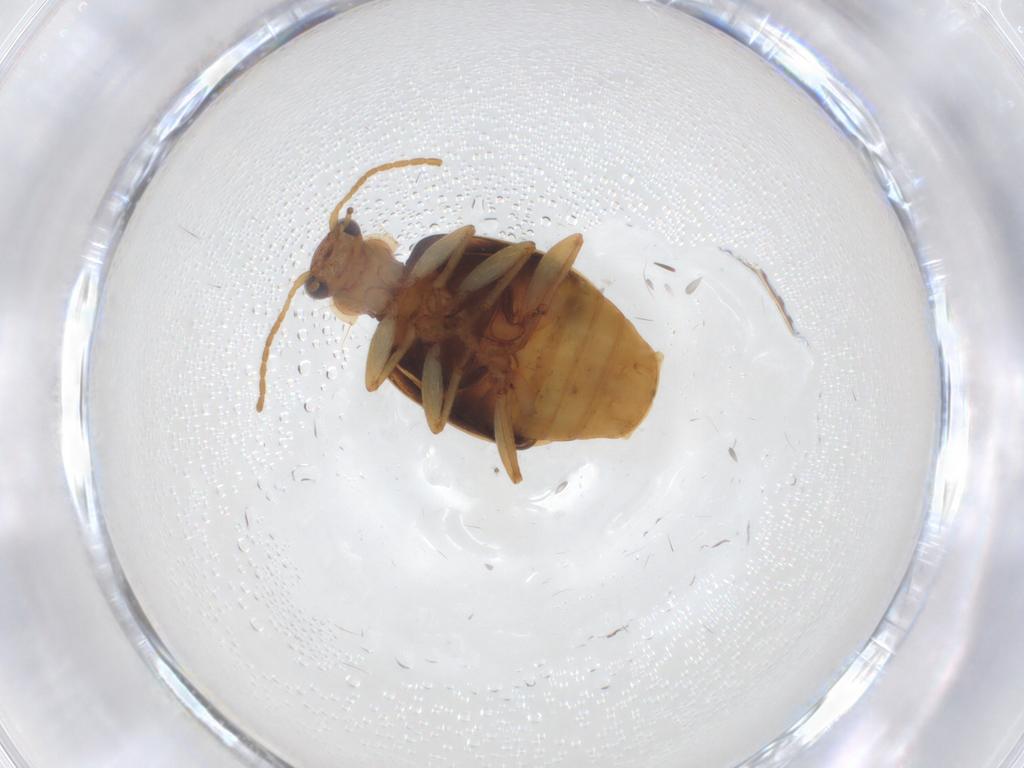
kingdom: Animalia
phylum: Arthropoda
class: Insecta
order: Coleoptera
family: Carabidae
